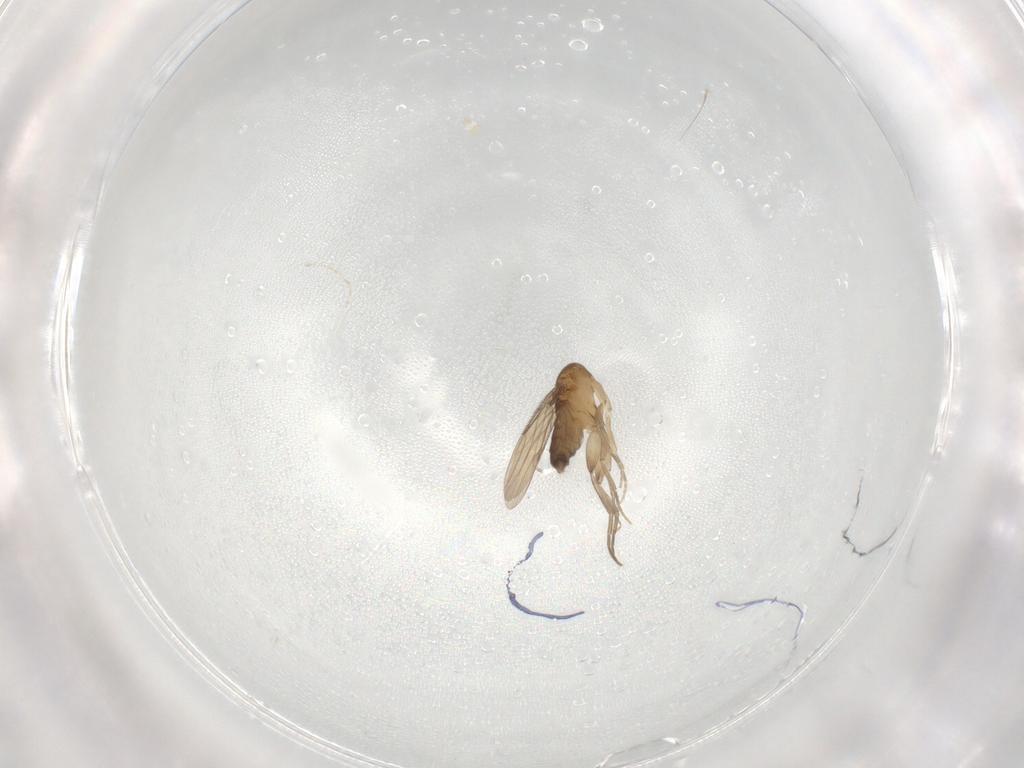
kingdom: Animalia
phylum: Arthropoda
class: Insecta
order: Diptera
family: Phoridae
